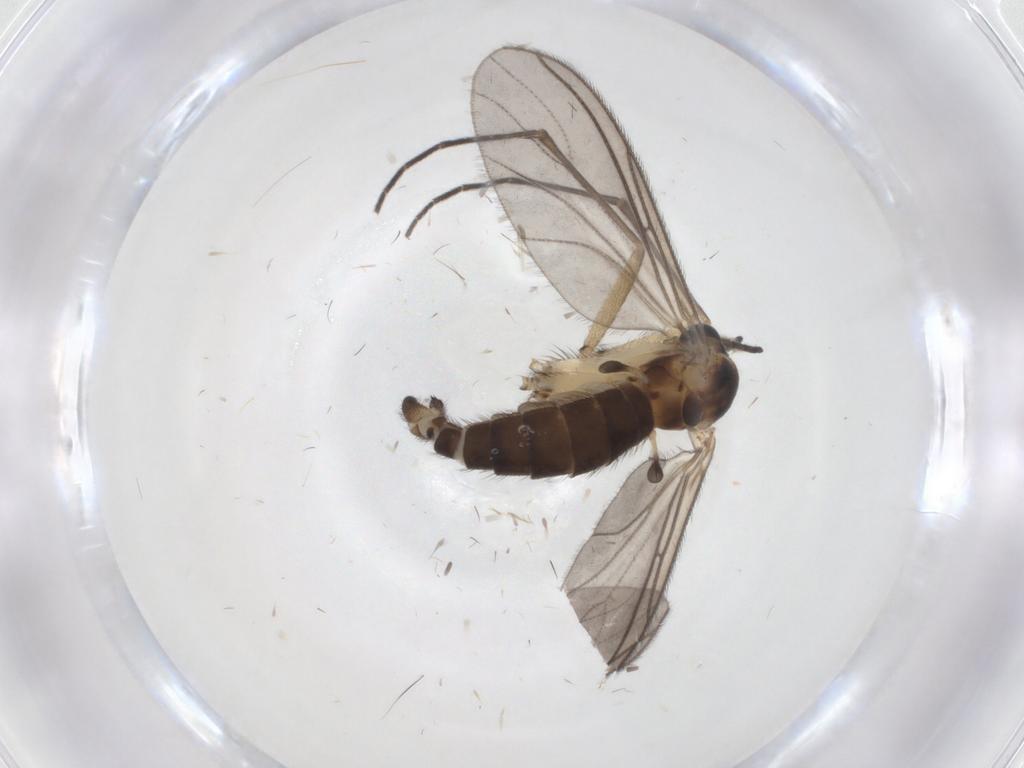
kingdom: Animalia
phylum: Arthropoda
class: Insecta
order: Diptera
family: Sciaridae
